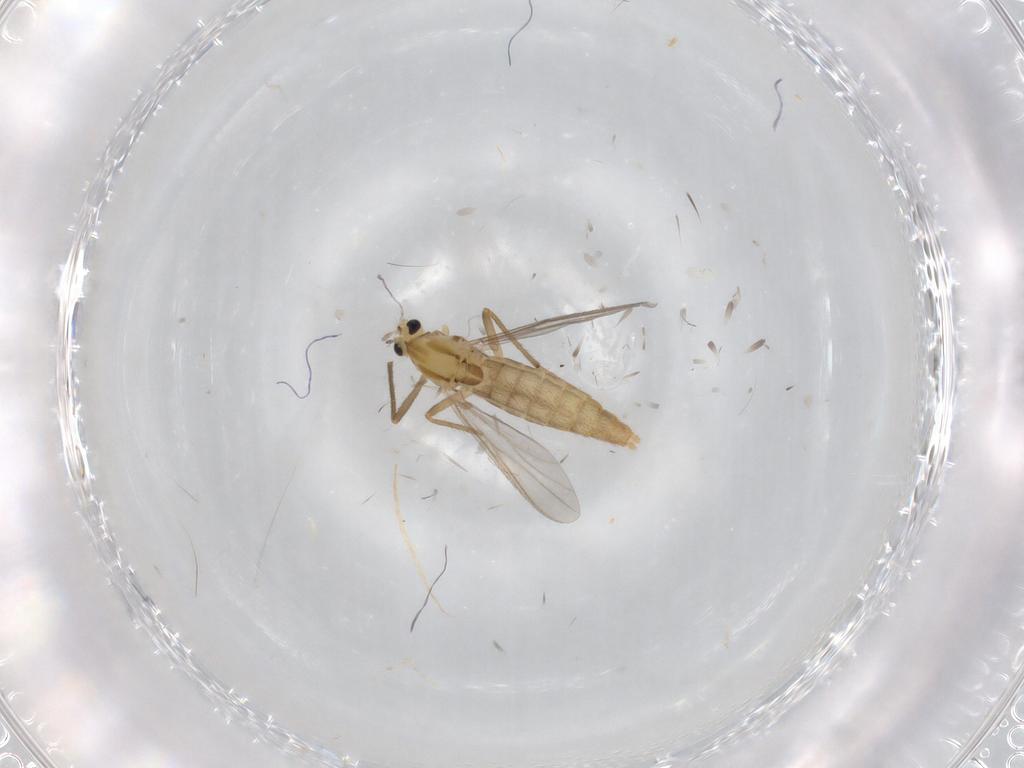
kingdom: Animalia
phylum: Arthropoda
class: Insecta
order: Diptera
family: Chironomidae
